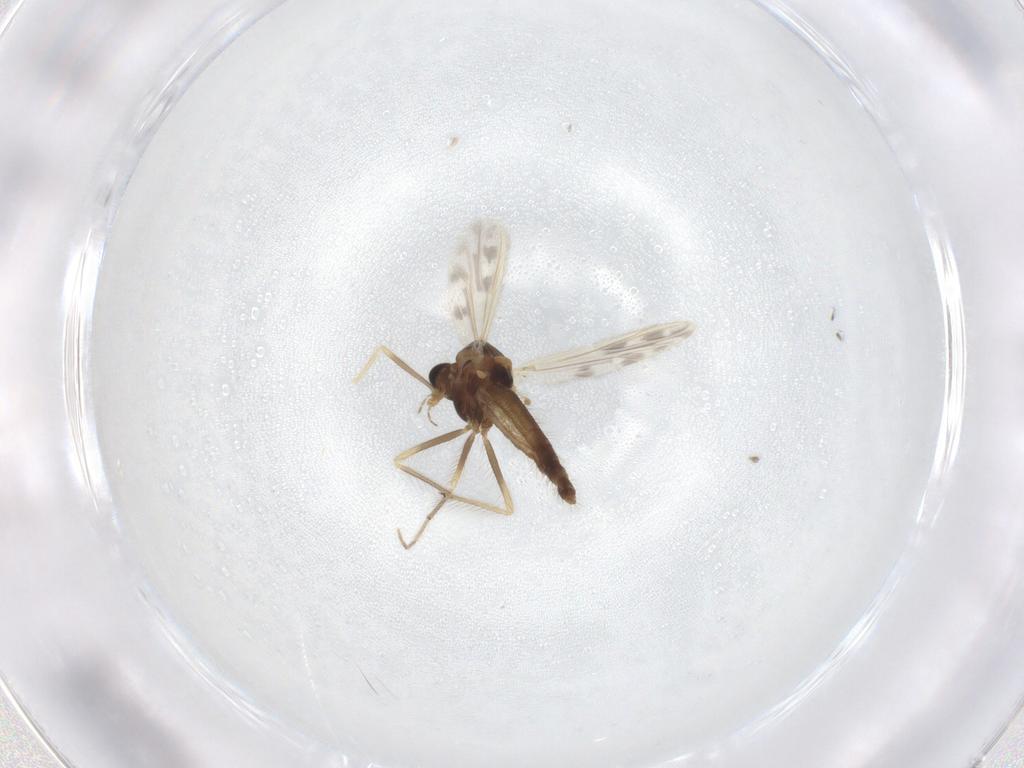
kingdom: Animalia
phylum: Arthropoda
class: Insecta
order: Diptera
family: Chironomidae
